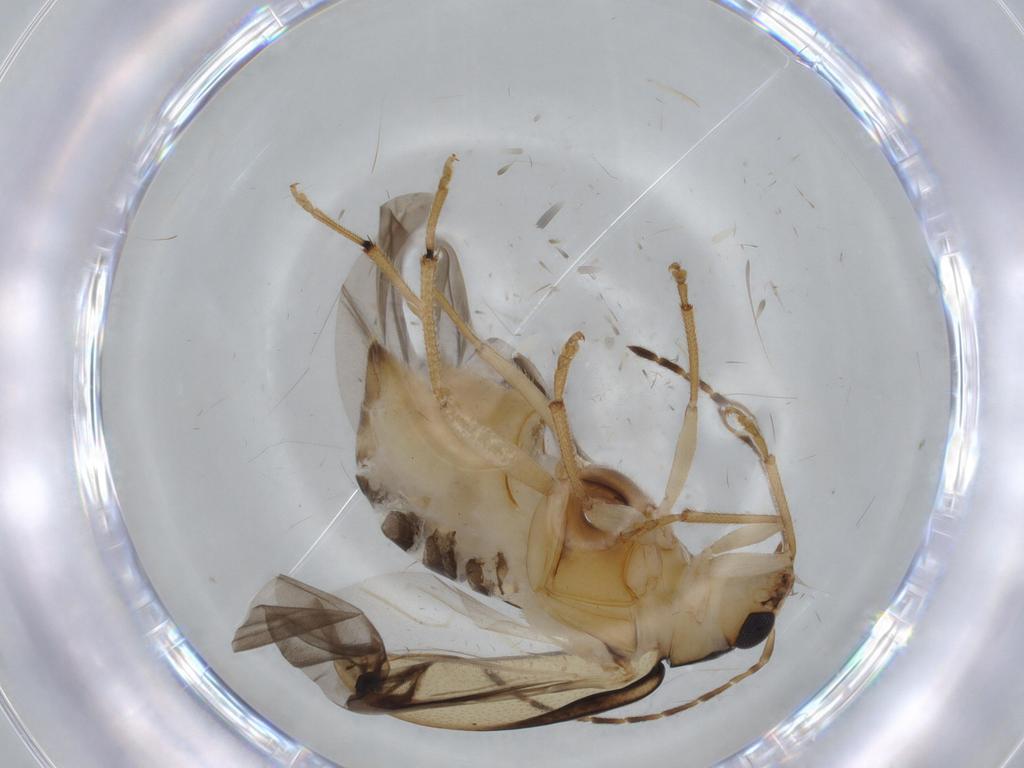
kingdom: Animalia
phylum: Arthropoda
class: Insecta
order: Coleoptera
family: Chrysomelidae
